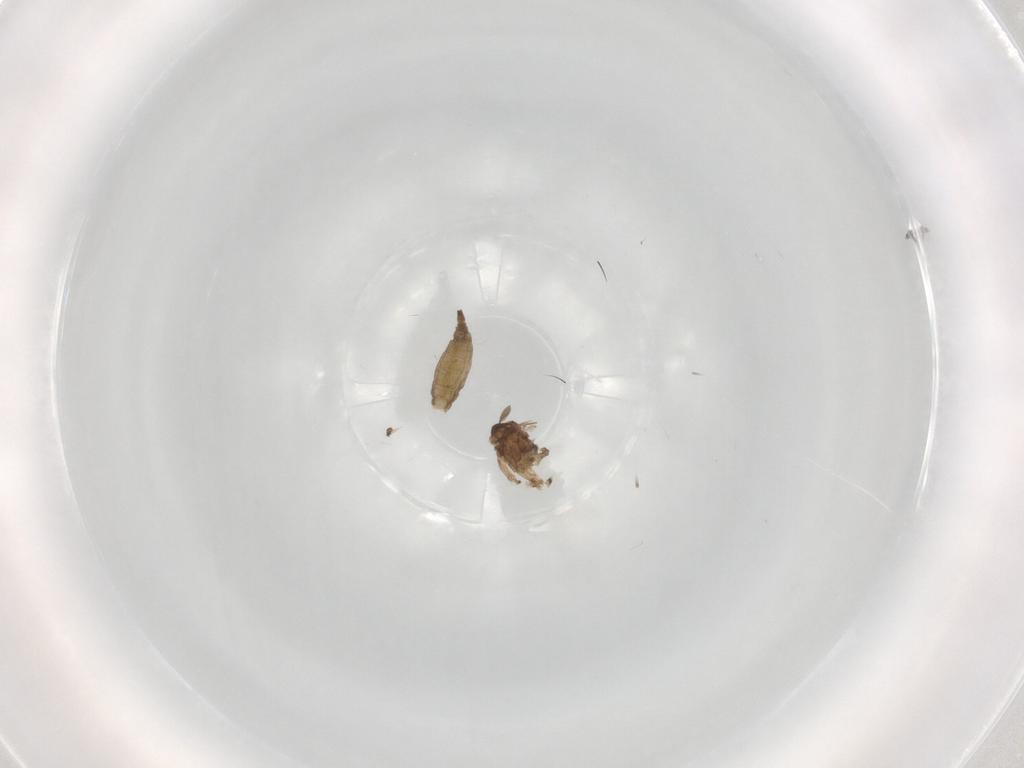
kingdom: Animalia
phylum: Arthropoda
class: Insecta
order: Diptera
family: Sciaridae
